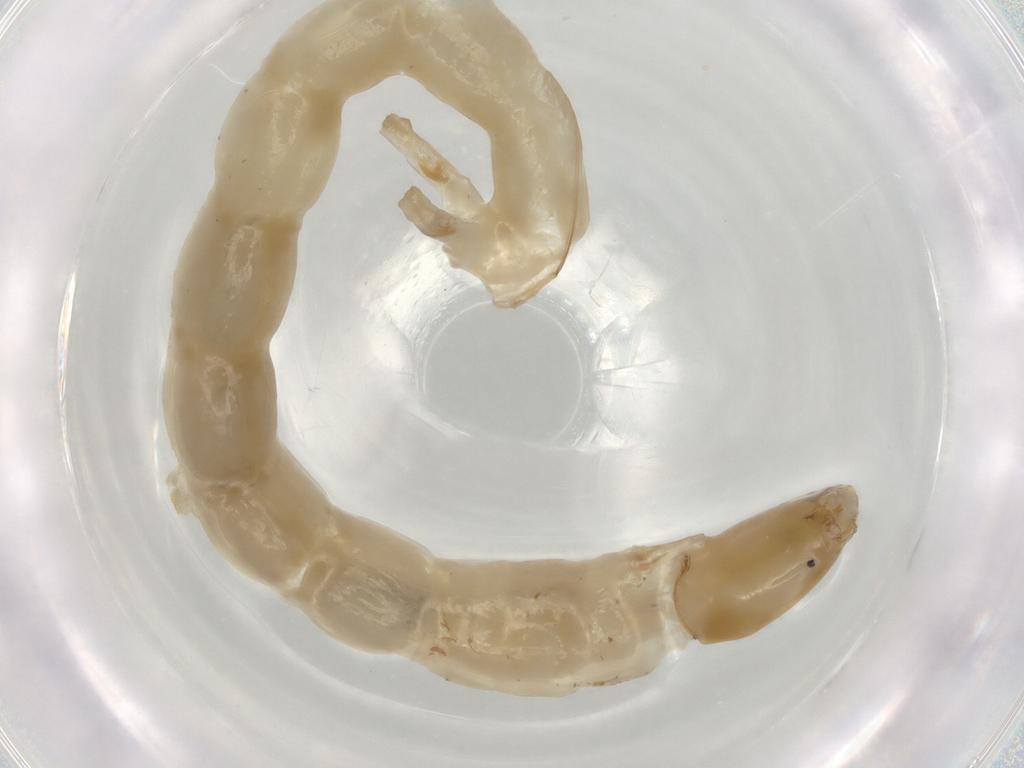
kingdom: Animalia
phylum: Arthropoda
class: Insecta
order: Diptera
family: Chironomidae
